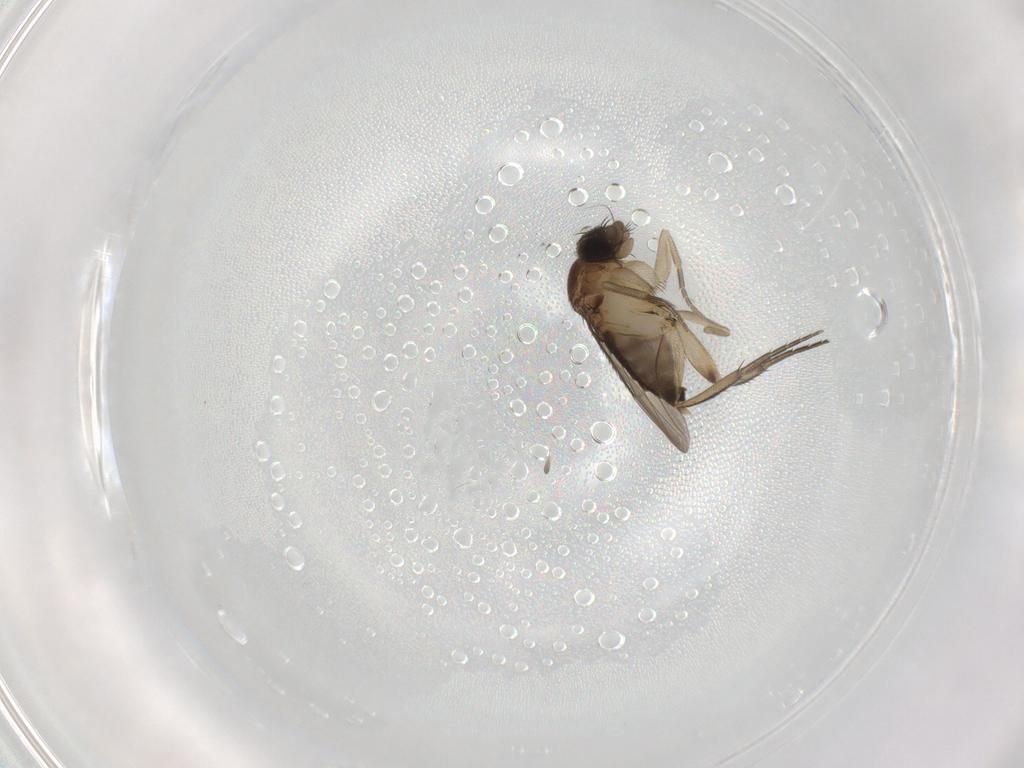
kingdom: Animalia
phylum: Arthropoda
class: Insecta
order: Diptera
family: Phoridae
